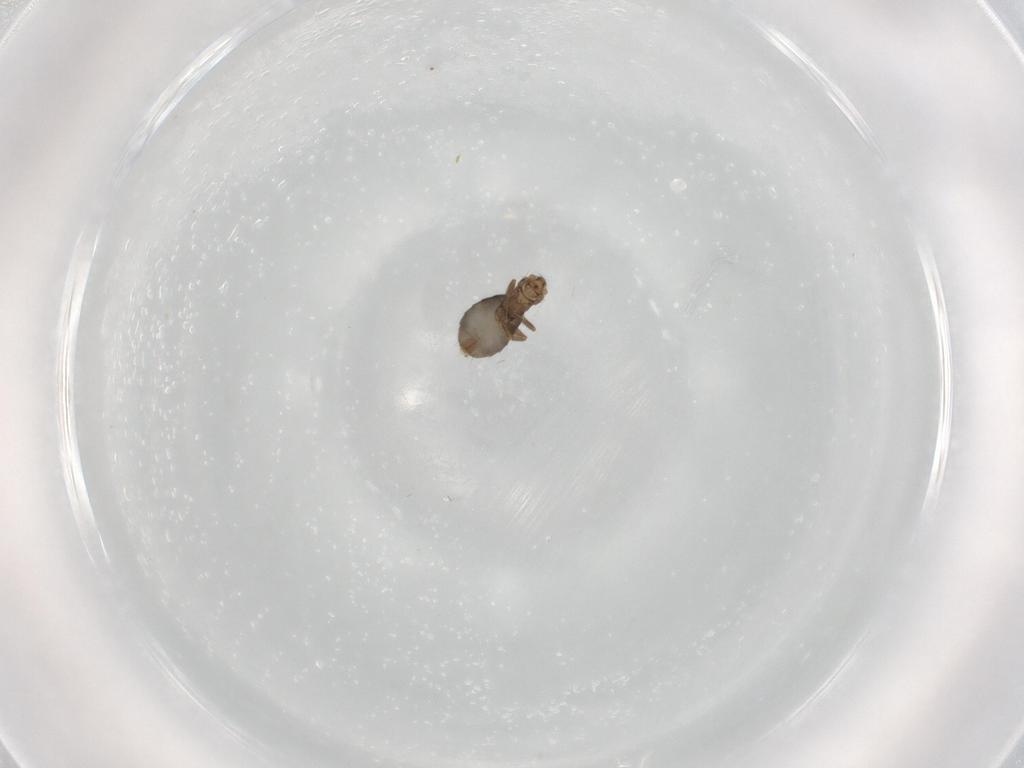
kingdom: Animalia
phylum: Arthropoda
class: Insecta
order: Diptera
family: Phoridae
